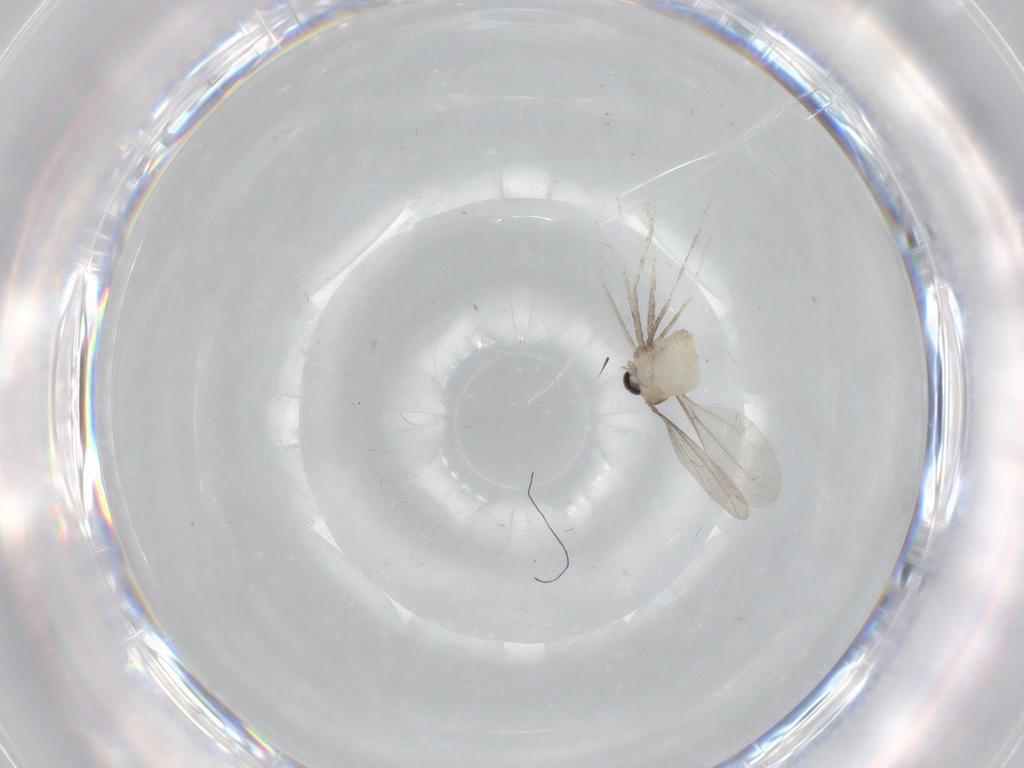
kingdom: Animalia
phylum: Arthropoda
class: Insecta
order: Diptera
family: Cecidomyiidae
